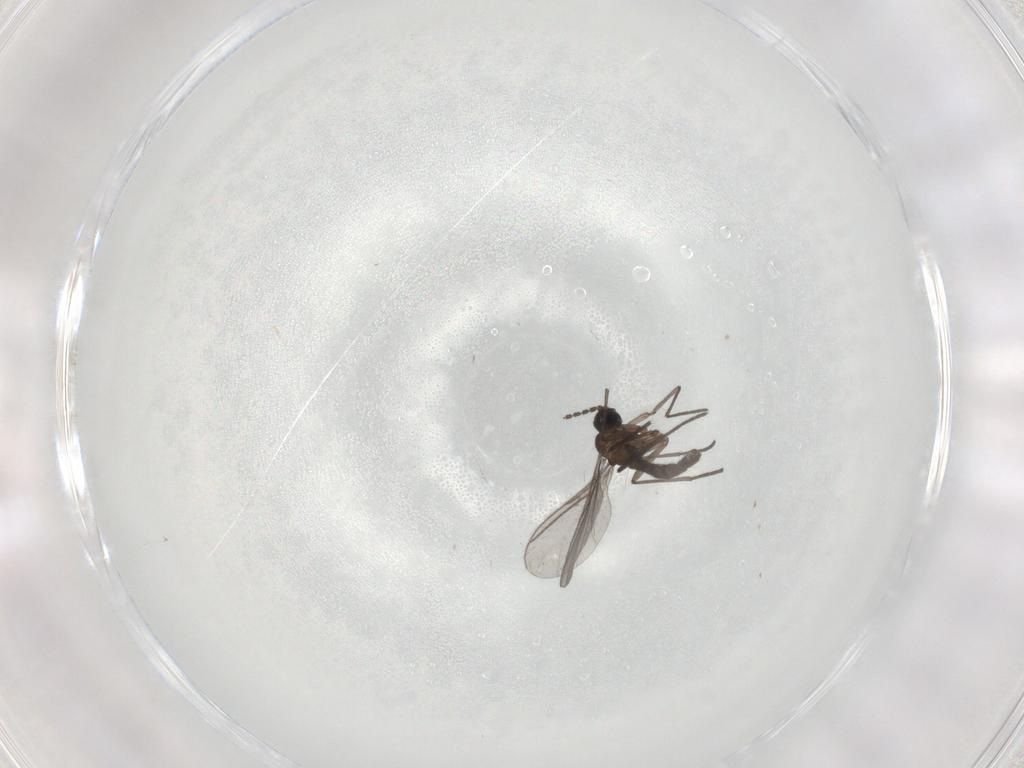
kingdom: Animalia
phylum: Arthropoda
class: Insecta
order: Diptera
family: Sciaridae
